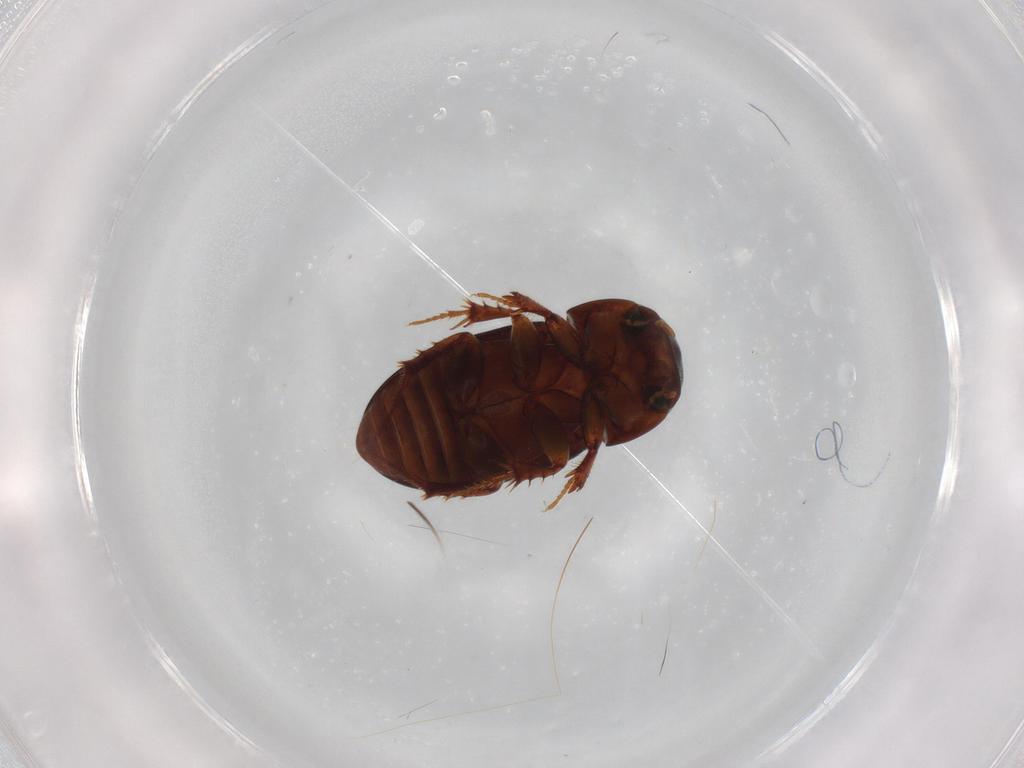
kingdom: Animalia
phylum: Arthropoda
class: Insecta
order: Coleoptera
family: Scarabaeidae
